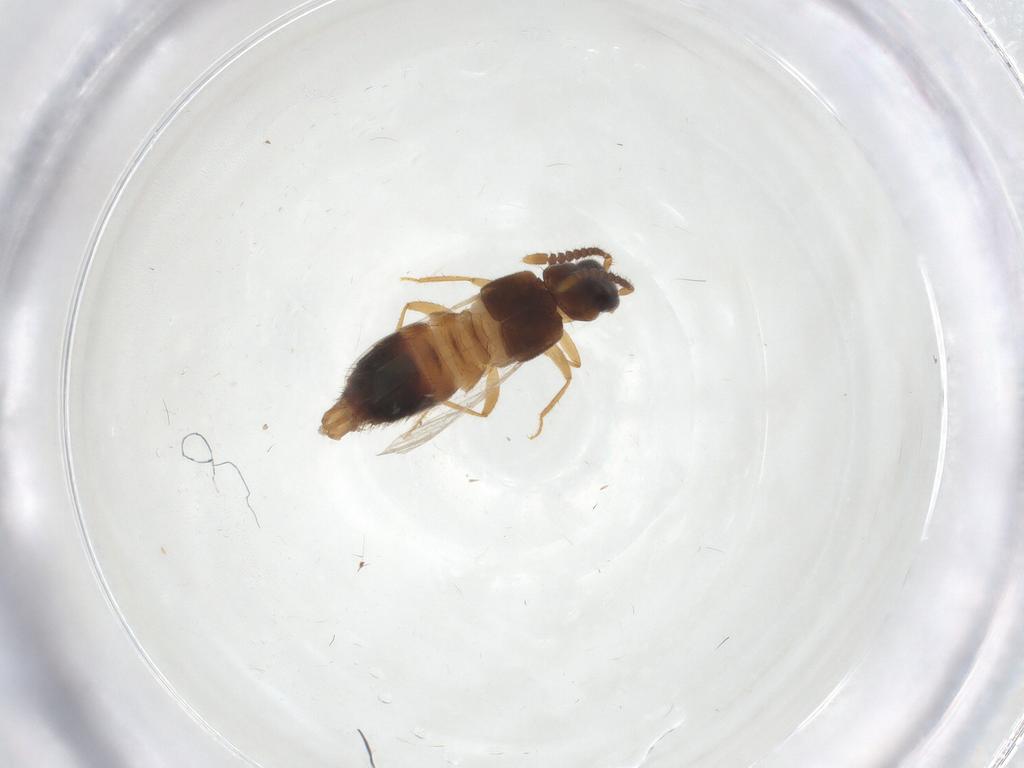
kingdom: Animalia
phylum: Arthropoda
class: Insecta
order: Coleoptera
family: Staphylinidae
